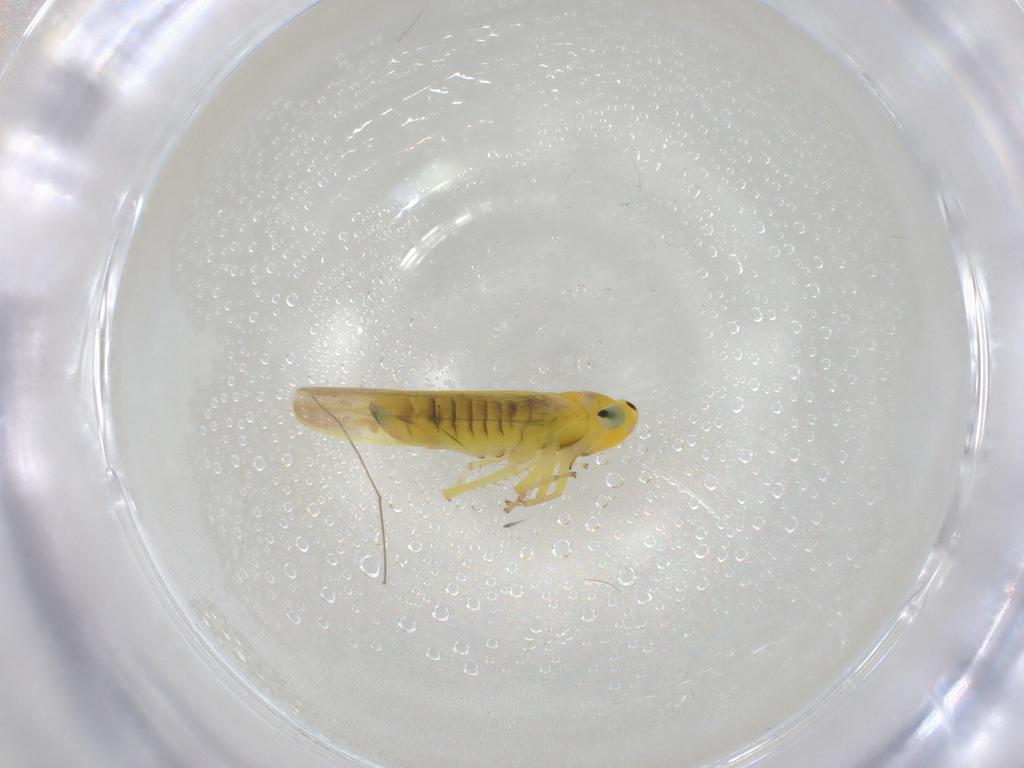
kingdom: Animalia
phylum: Arthropoda
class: Insecta
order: Hemiptera
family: Cicadellidae
